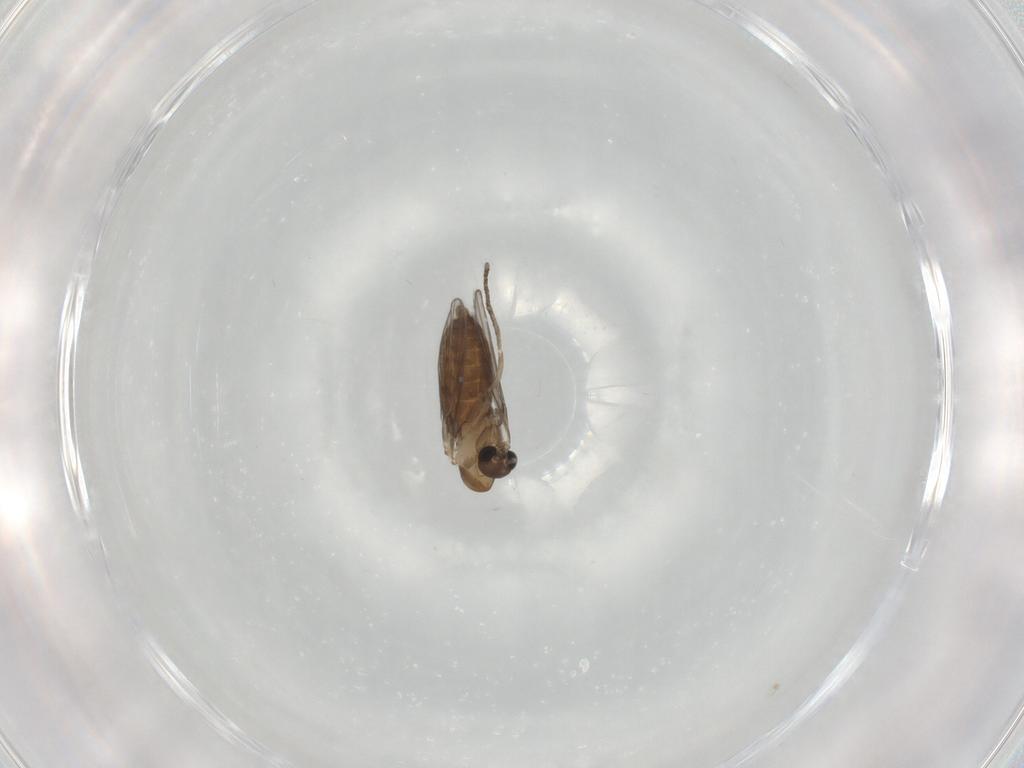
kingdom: Animalia
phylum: Arthropoda
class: Insecta
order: Diptera
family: Psychodidae
